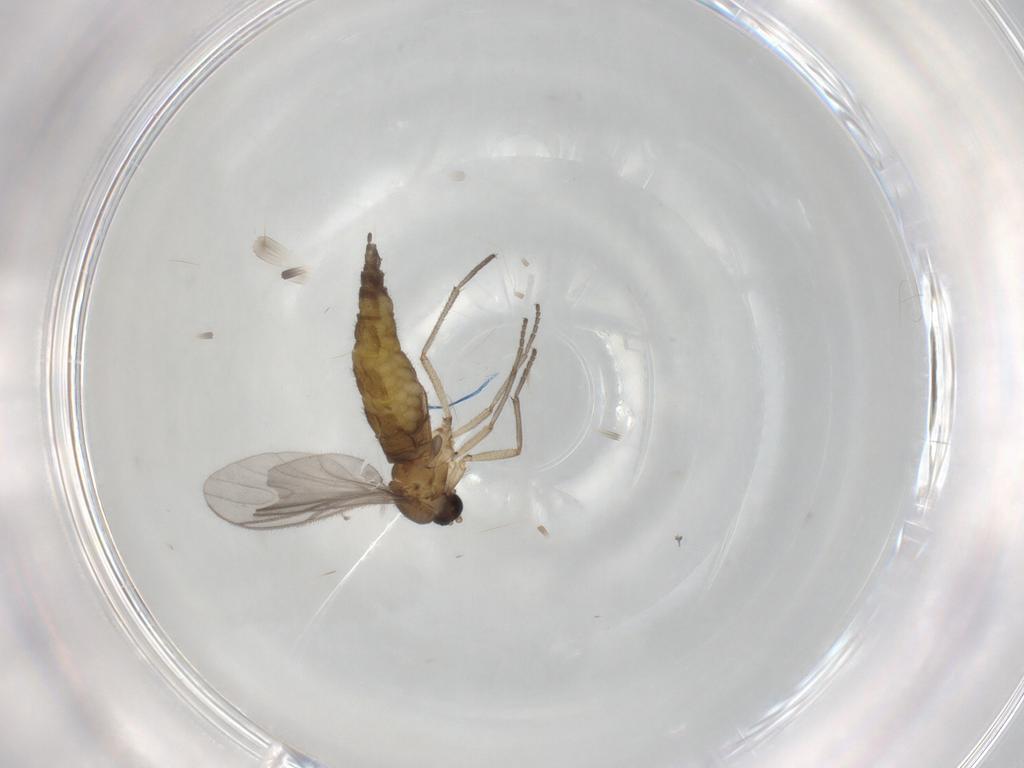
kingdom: Animalia
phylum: Arthropoda
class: Insecta
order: Diptera
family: Sciaridae
